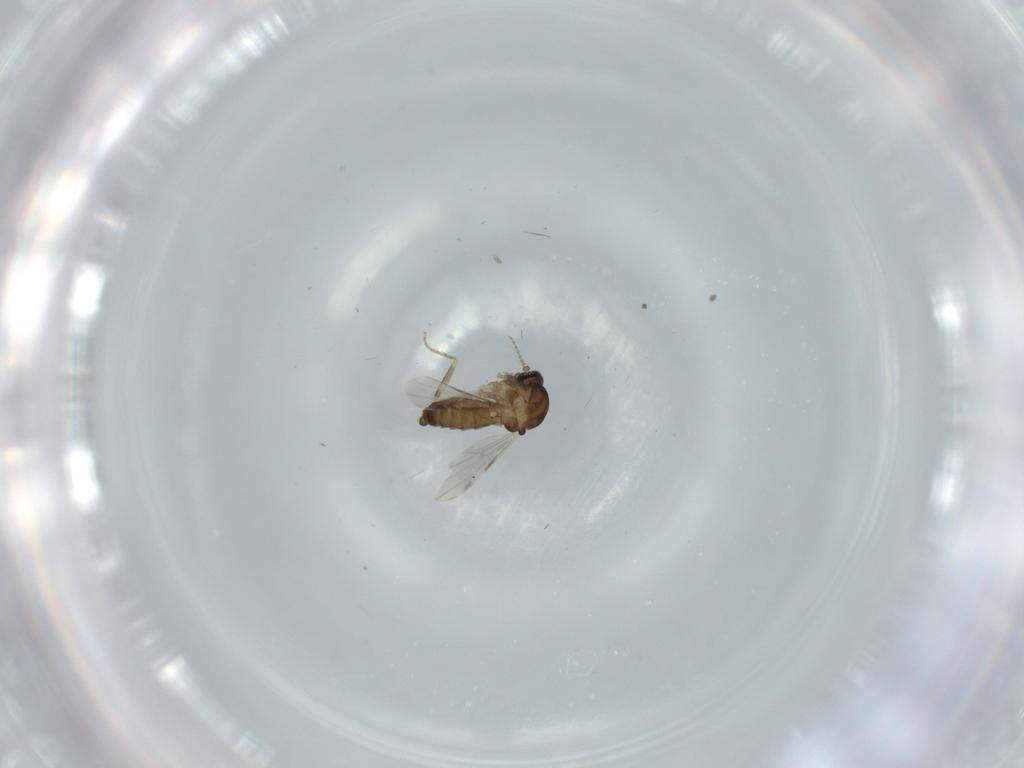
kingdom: Animalia
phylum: Arthropoda
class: Insecta
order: Diptera
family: Ceratopogonidae
